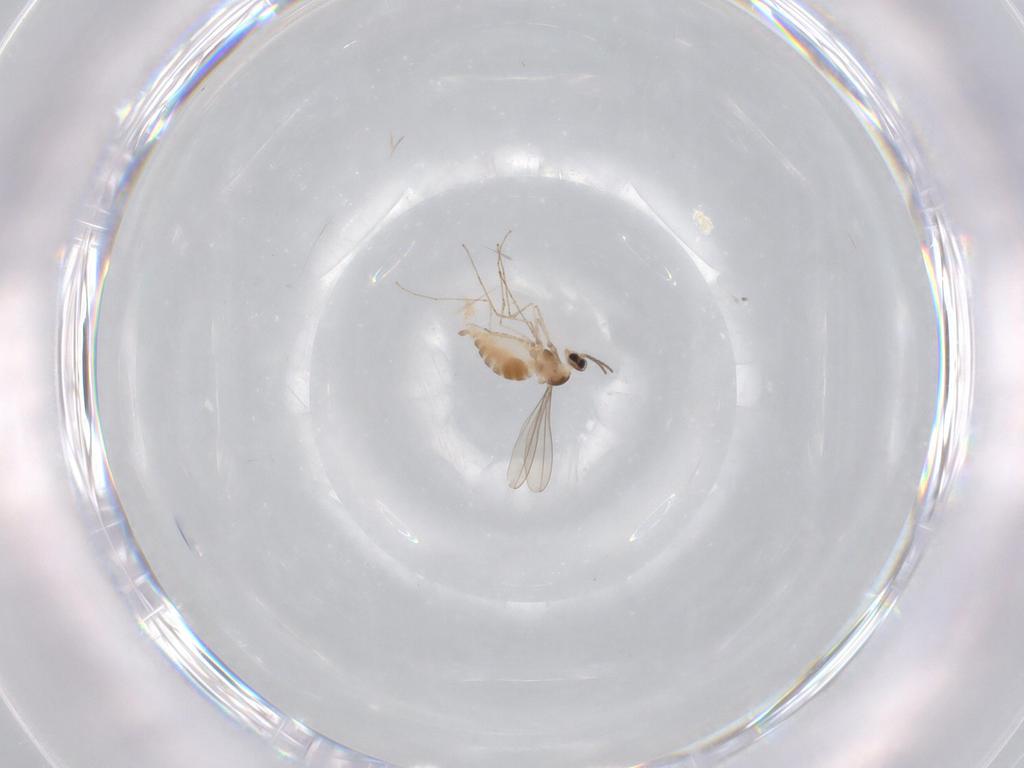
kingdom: Animalia
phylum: Arthropoda
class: Insecta
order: Diptera
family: Cecidomyiidae
